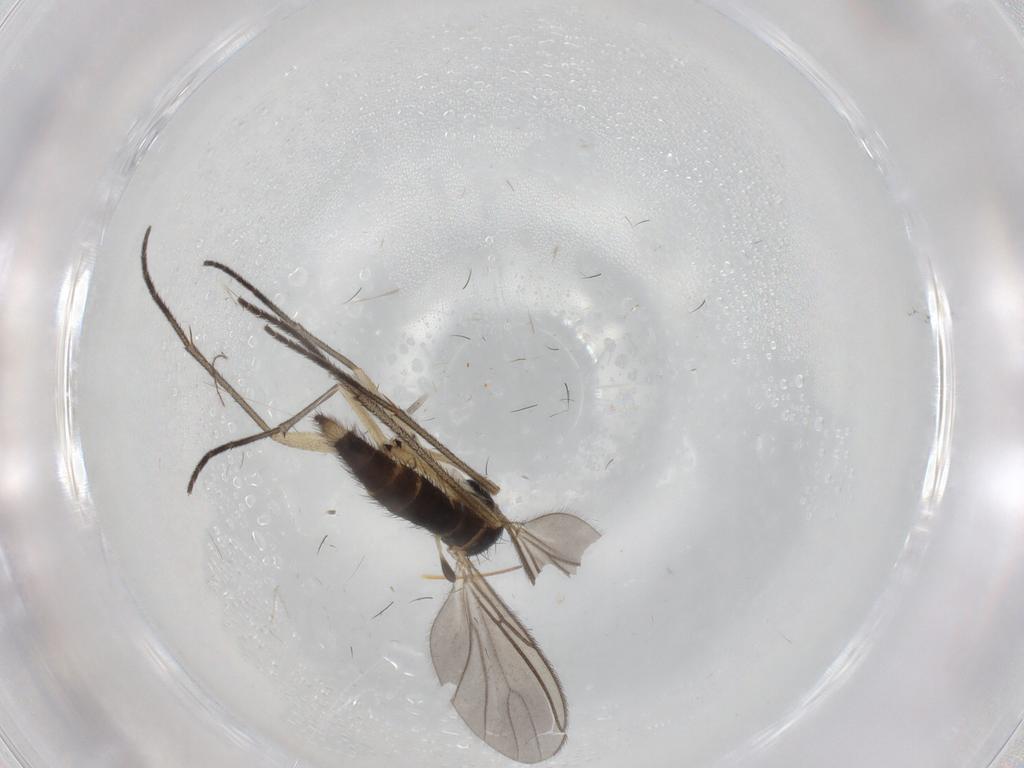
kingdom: Animalia
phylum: Arthropoda
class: Insecta
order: Diptera
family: Sciaridae
